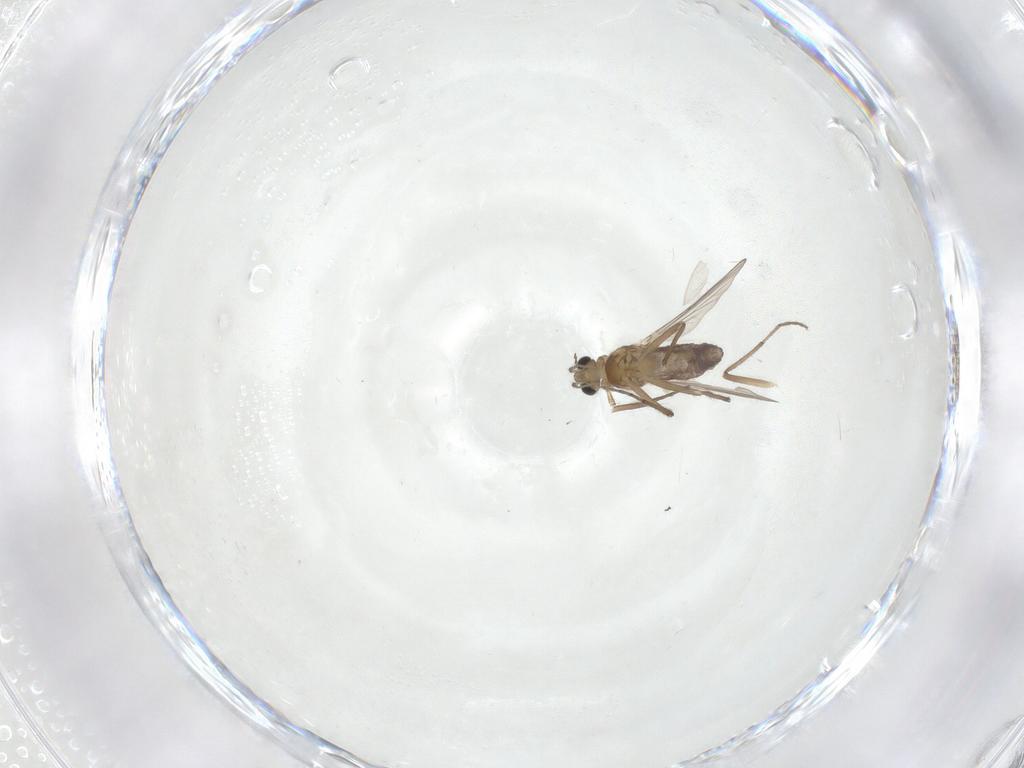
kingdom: Animalia
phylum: Arthropoda
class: Insecta
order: Diptera
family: Chironomidae
